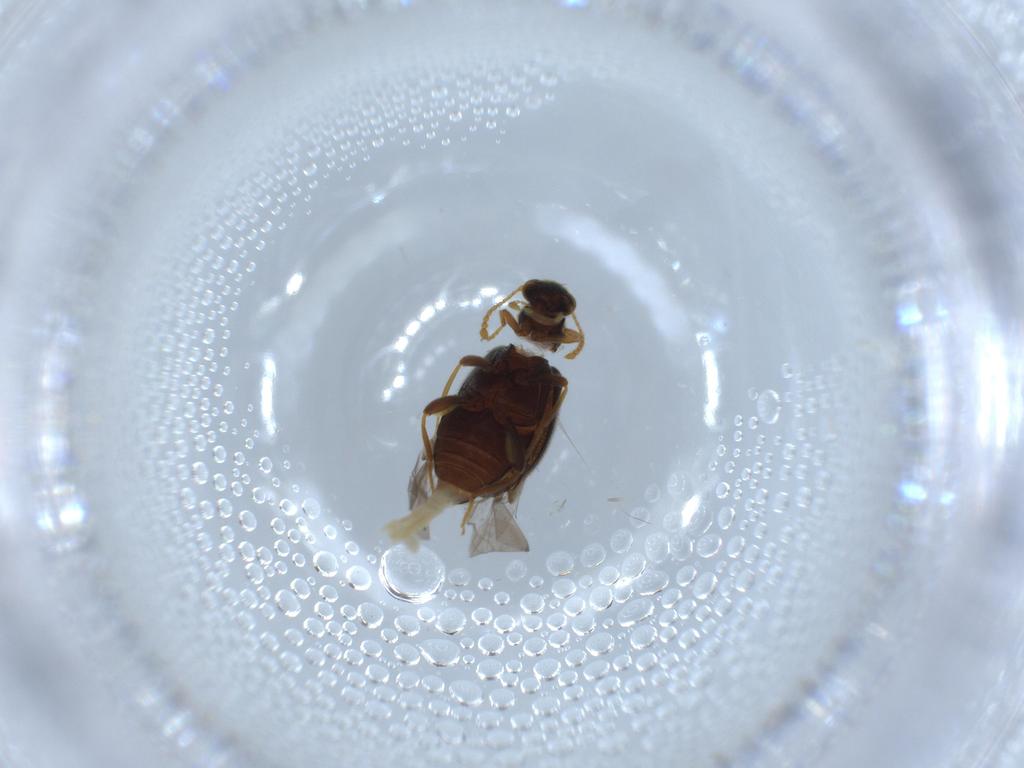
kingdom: Animalia
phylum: Arthropoda
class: Insecta
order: Coleoptera
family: Aderidae
